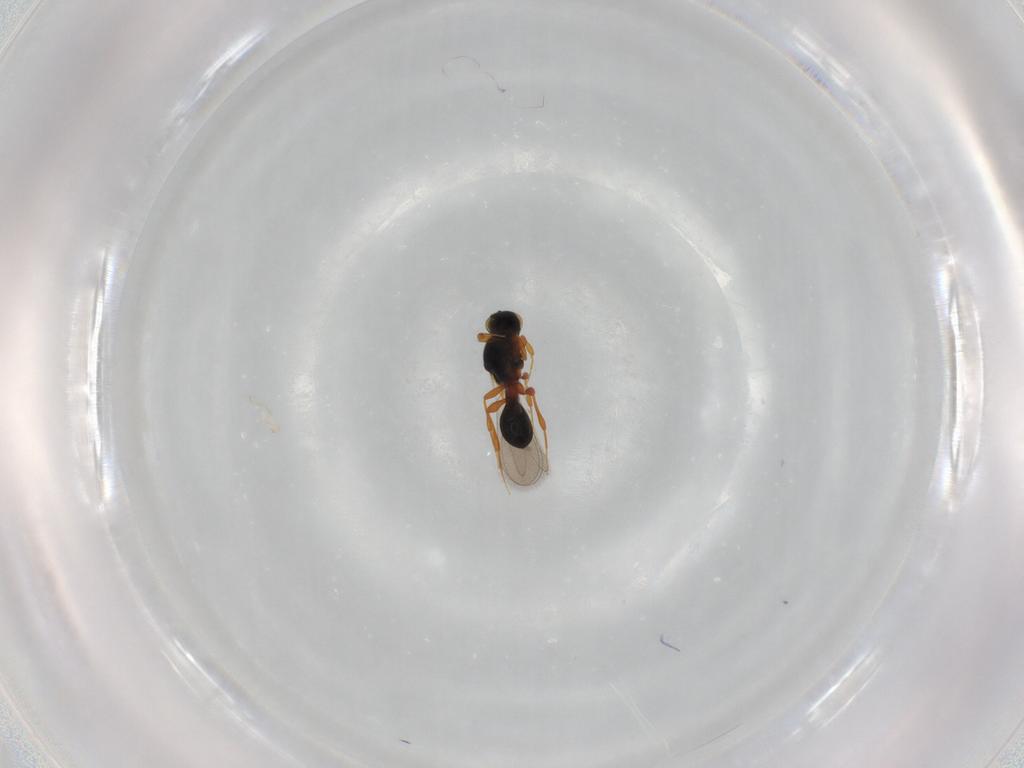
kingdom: Animalia
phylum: Arthropoda
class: Insecta
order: Hymenoptera
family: Platygastridae
